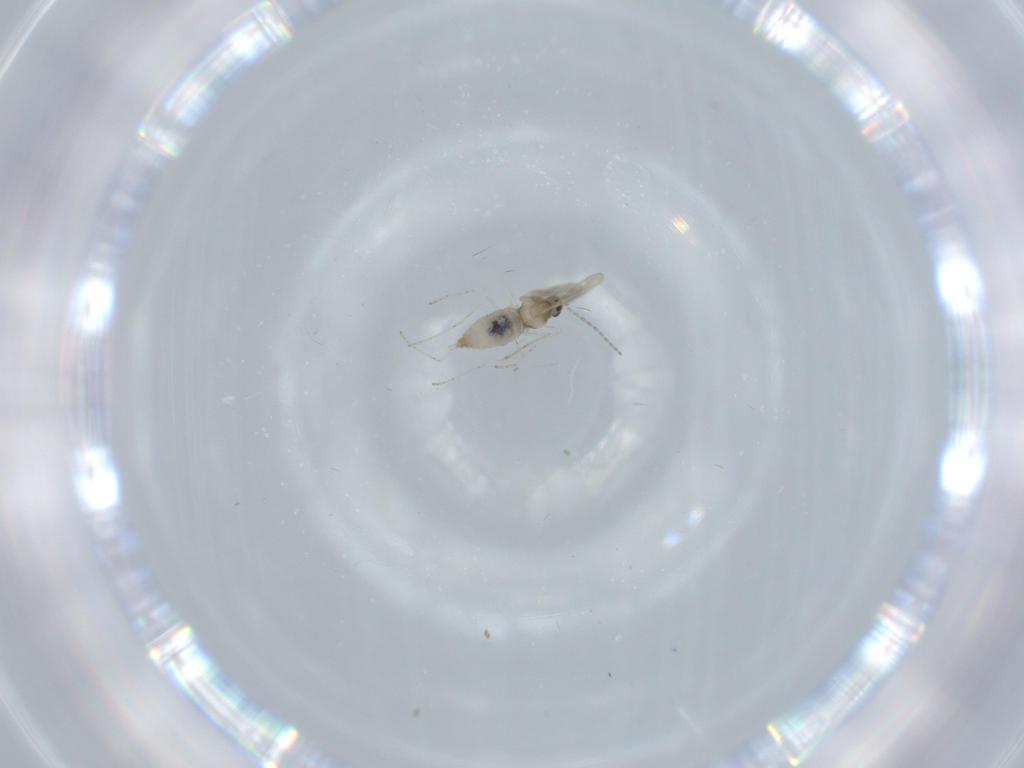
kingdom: Animalia
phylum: Arthropoda
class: Insecta
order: Diptera
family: Cecidomyiidae
